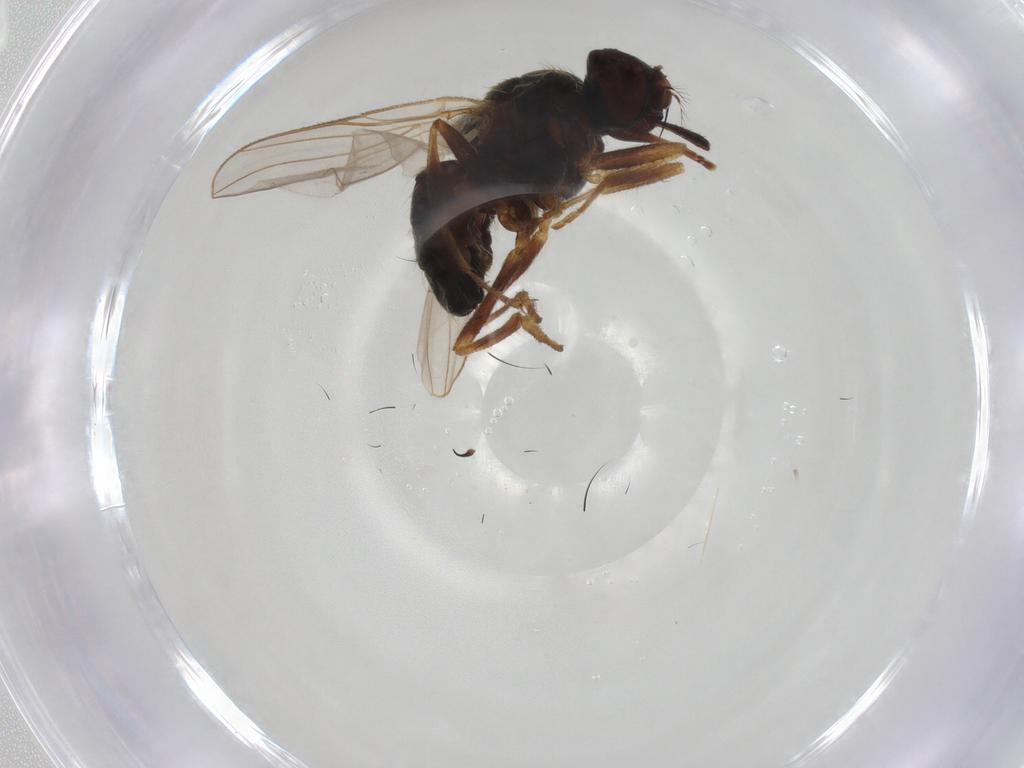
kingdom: Animalia
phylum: Arthropoda
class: Insecta
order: Diptera
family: Muscidae
